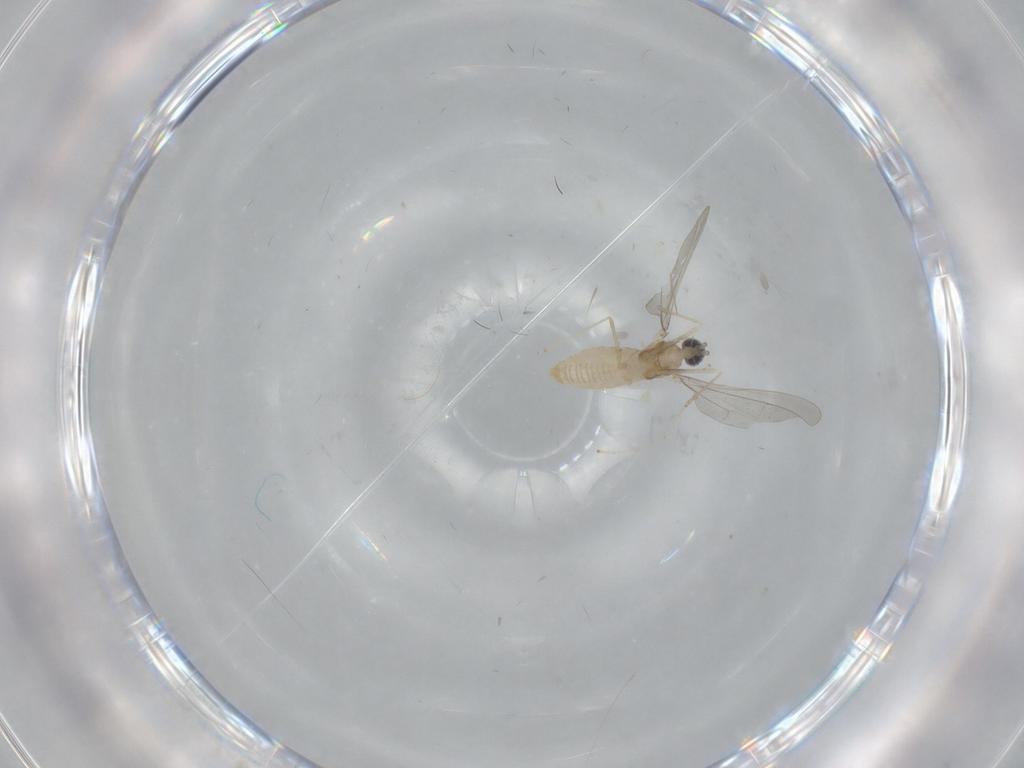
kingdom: Animalia
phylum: Arthropoda
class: Insecta
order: Diptera
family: Cecidomyiidae
